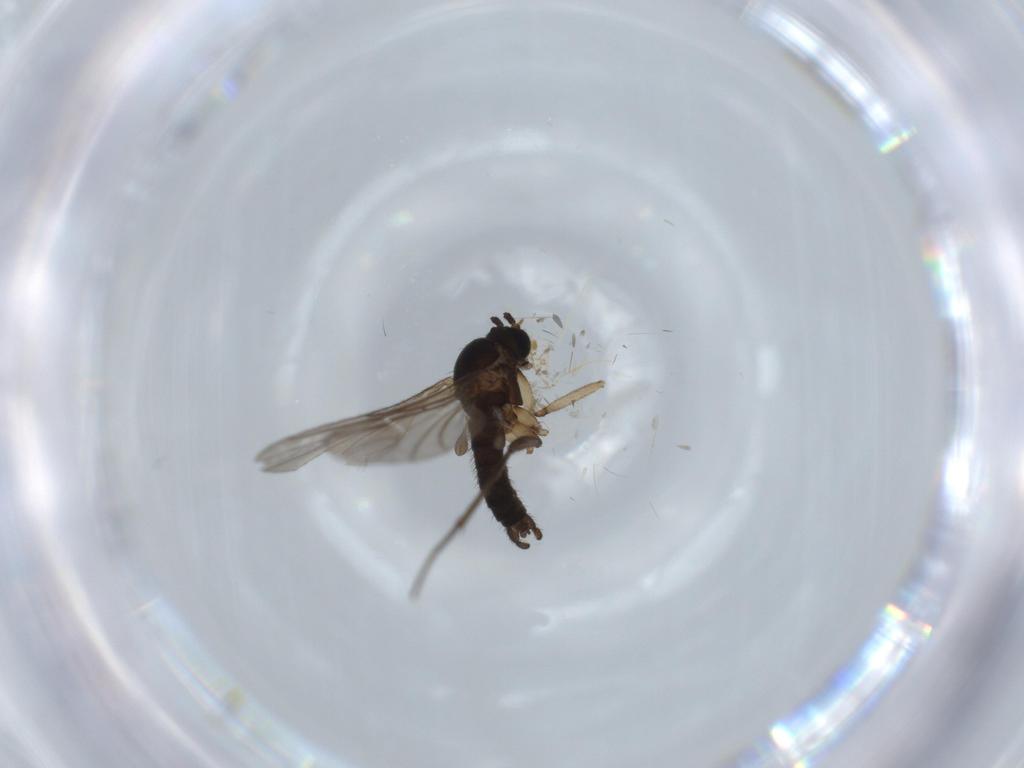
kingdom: Animalia
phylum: Arthropoda
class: Insecta
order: Diptera
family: Sciaridae
